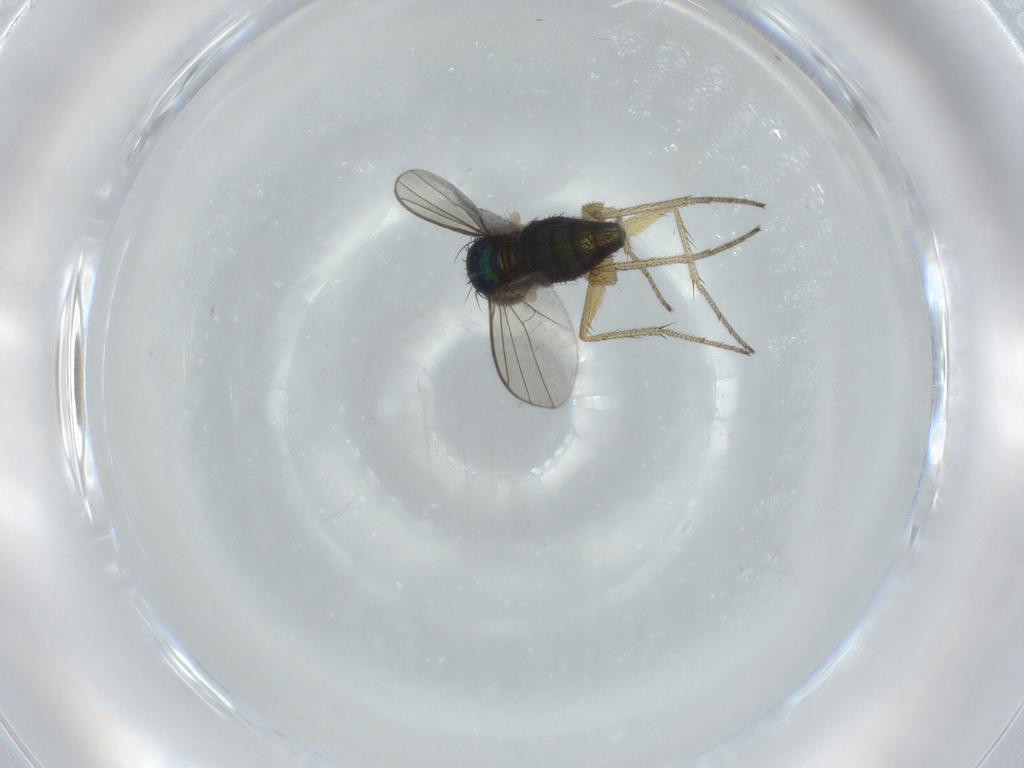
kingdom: Animalia
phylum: Arthropoda
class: Insecta
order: Diptera
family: Dolichopodidae
